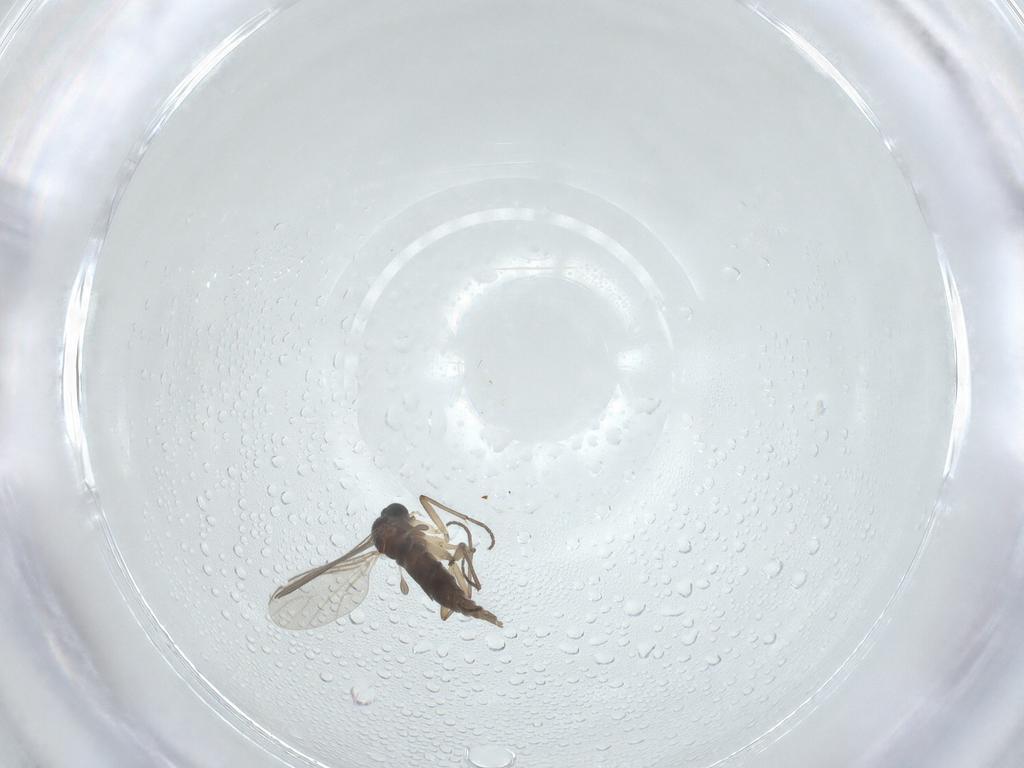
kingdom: Animalia
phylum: Arthropoda
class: Insecta
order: Diptera
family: Sciaridae
